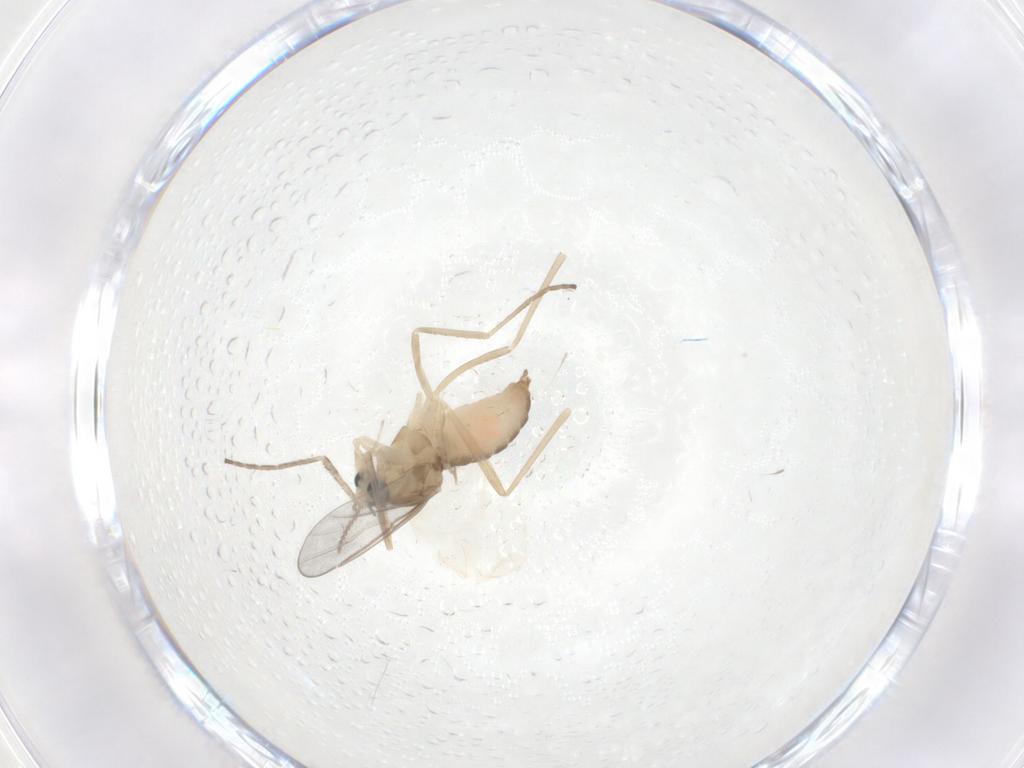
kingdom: Animalia
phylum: Arthropoda
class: Insecta
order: Diptera
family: Cecidomyiidae
